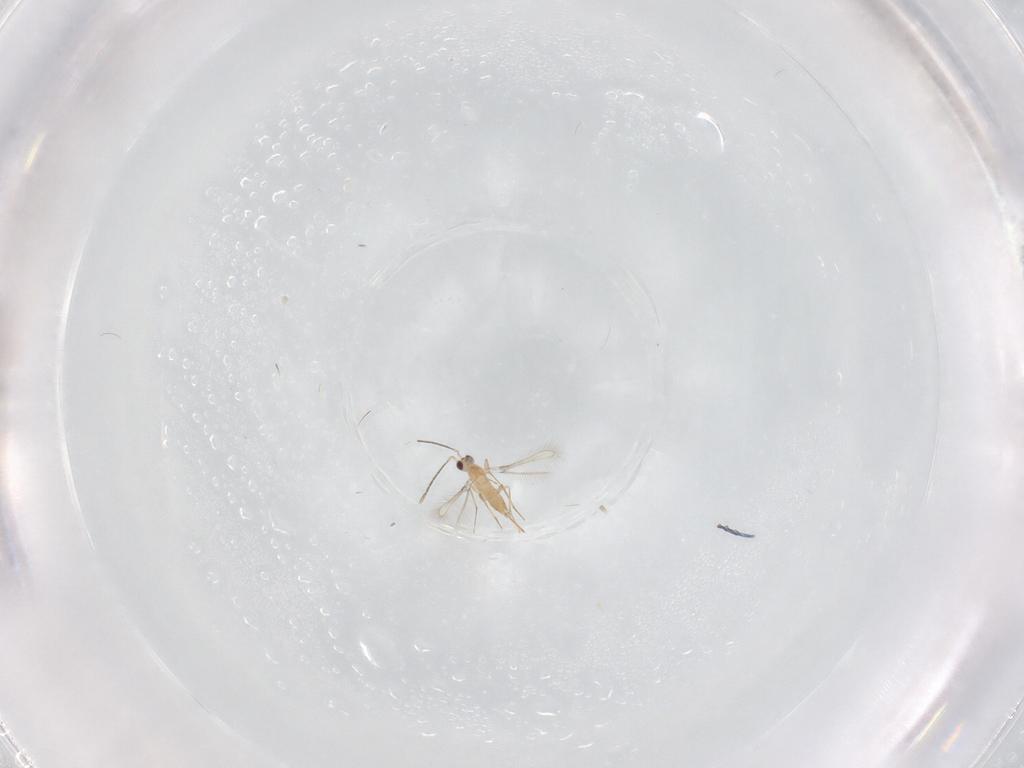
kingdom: Animalia
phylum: Arthropoda
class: Insecta
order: Hymenoptera
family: Mymaridae
